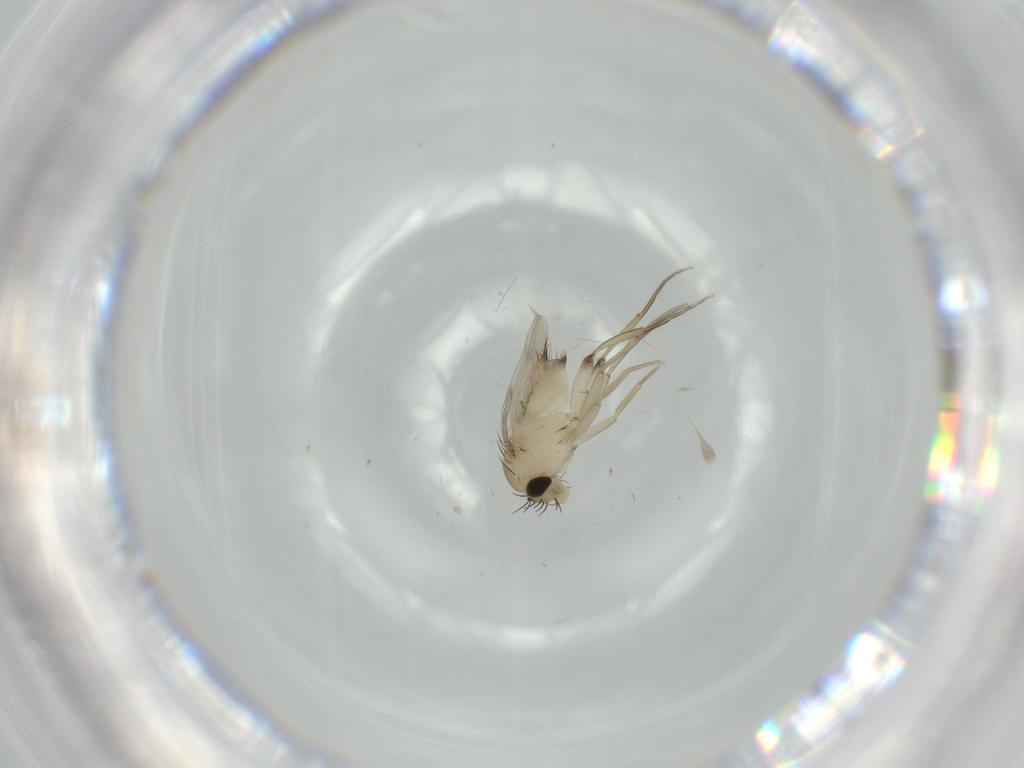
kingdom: Animalia
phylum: Arthropoda
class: Insecta
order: Diptera
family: Phoridae
